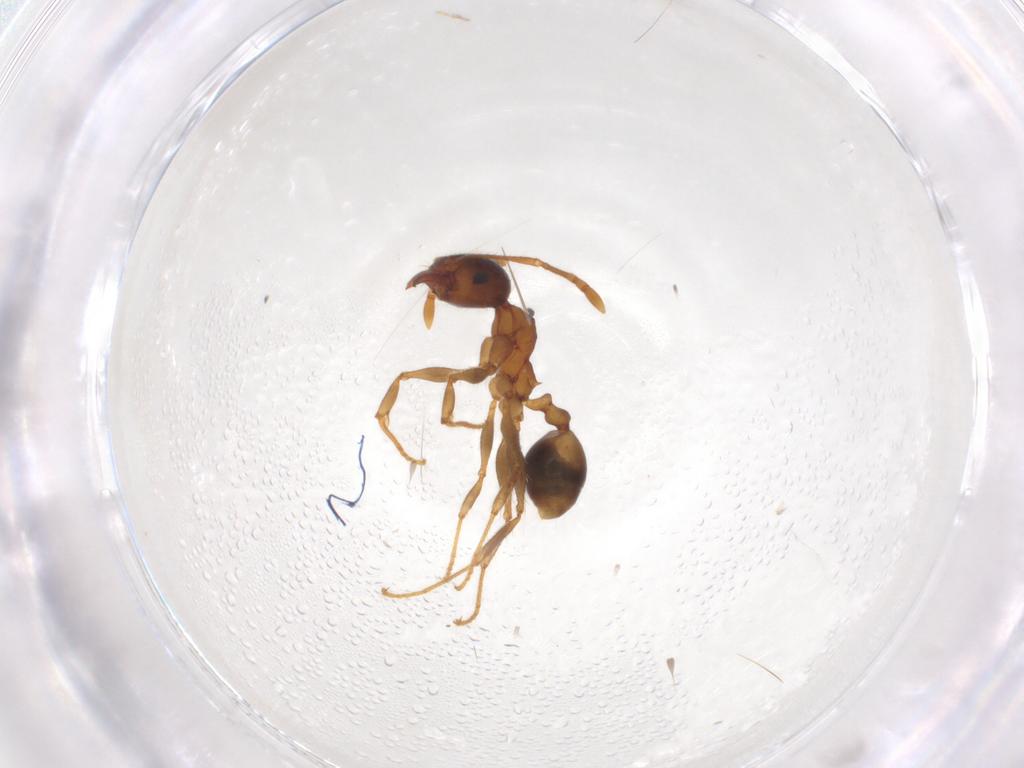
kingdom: Animalia
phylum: Arthropoda
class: Insecta
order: Hymenoptera
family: Formicidae
